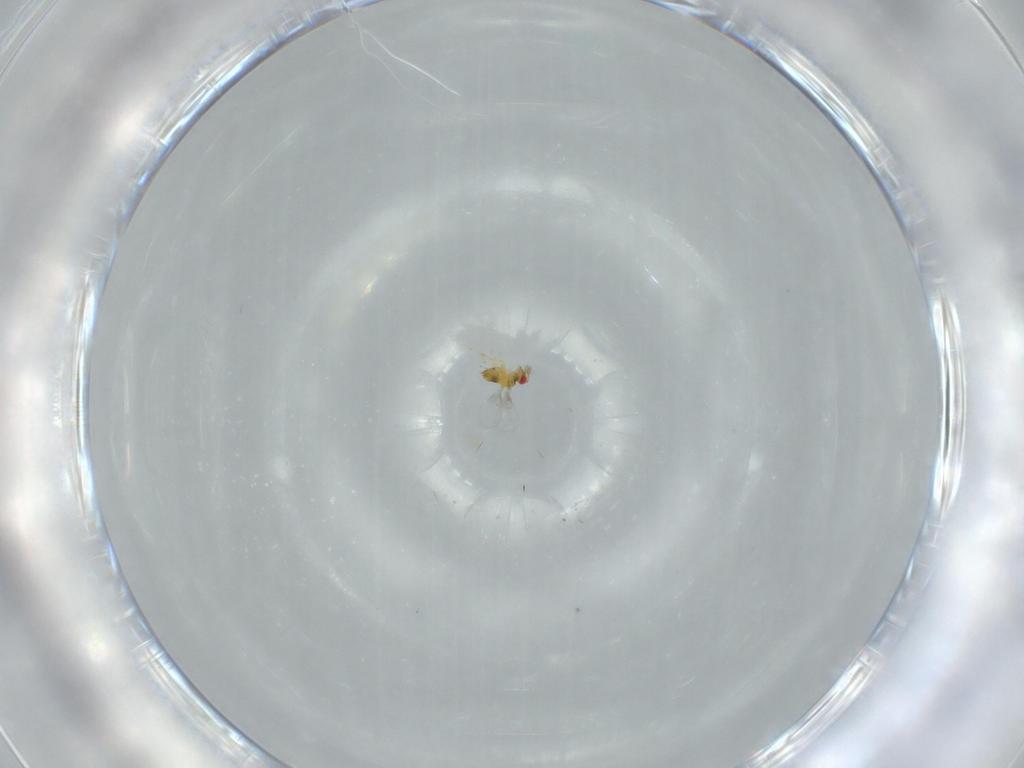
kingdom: Animalia
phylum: Arthropoda
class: Insecta
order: Hymenoptera
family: Trichogrammatidae
